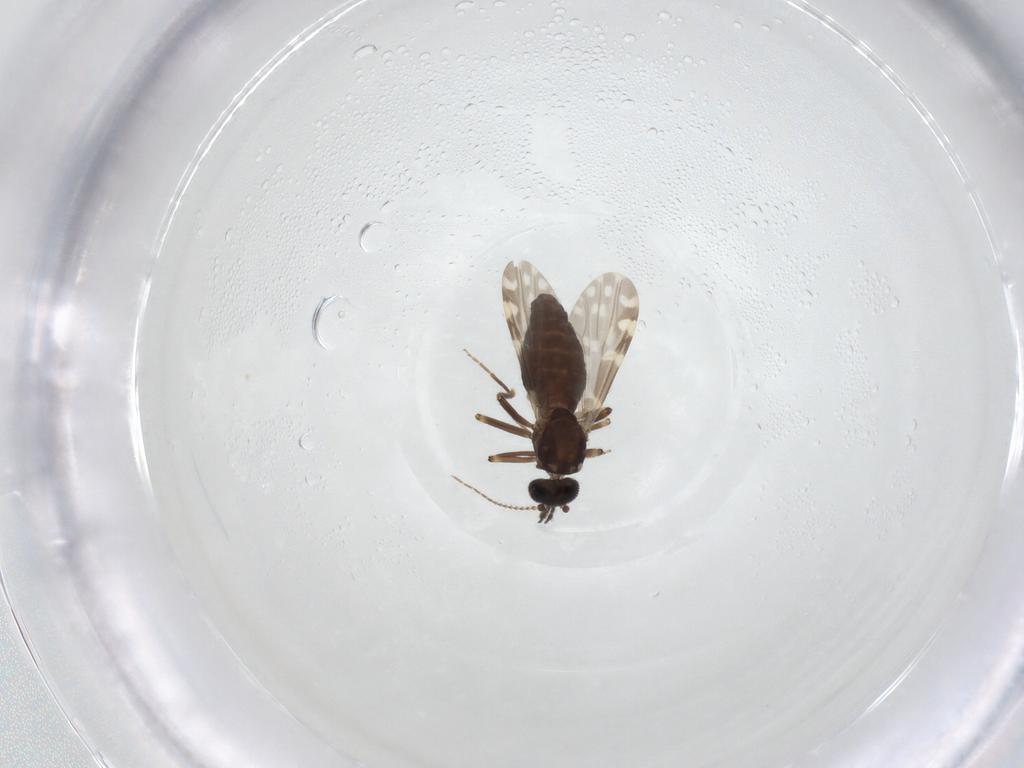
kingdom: Animalia
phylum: Arthropoda
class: Insecta
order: Diptera
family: Ceratopogonidae
